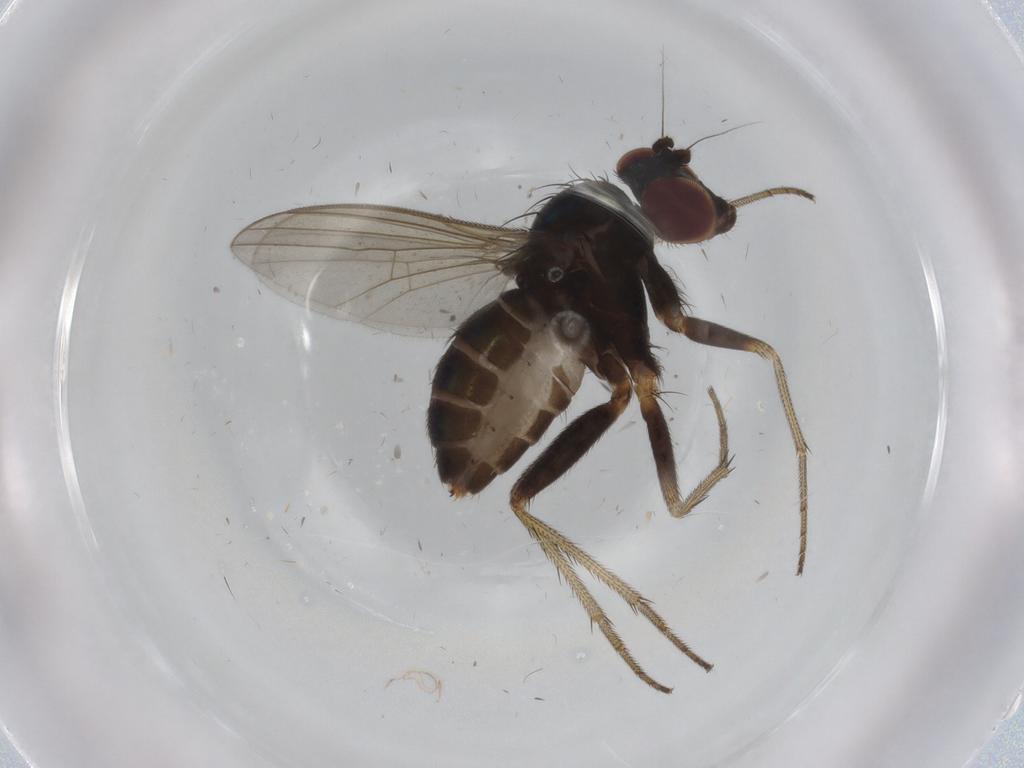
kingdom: Animalia
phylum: Arthropoda
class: Insecta
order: Diptera
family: Dolichopodidae
